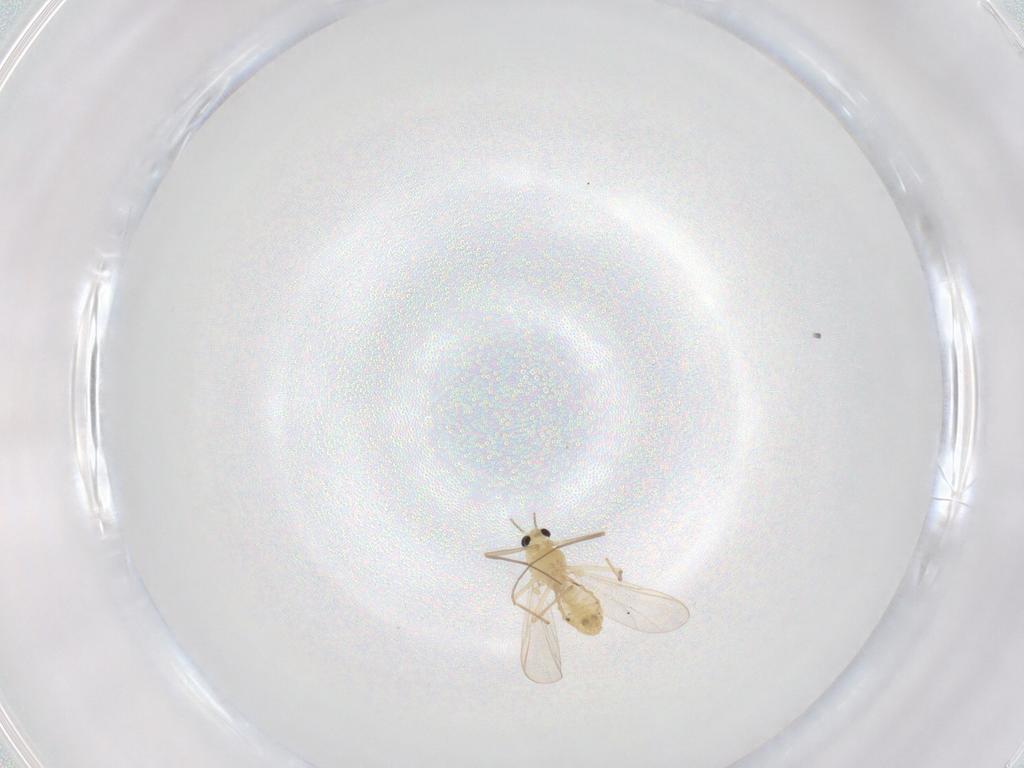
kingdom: Animalia
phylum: Arthropoda
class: Insecta
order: Diptera
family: Chironomidae
